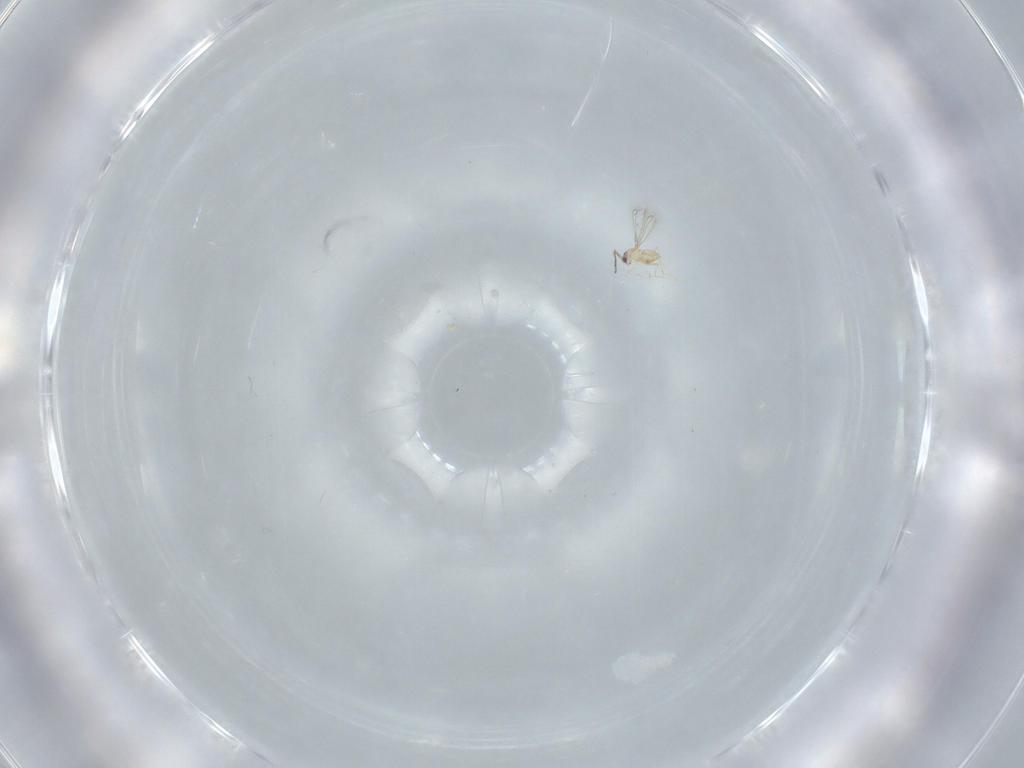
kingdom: Animalia
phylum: Arthropoda
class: Insecta
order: Hymenoptera
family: Mymaridae
